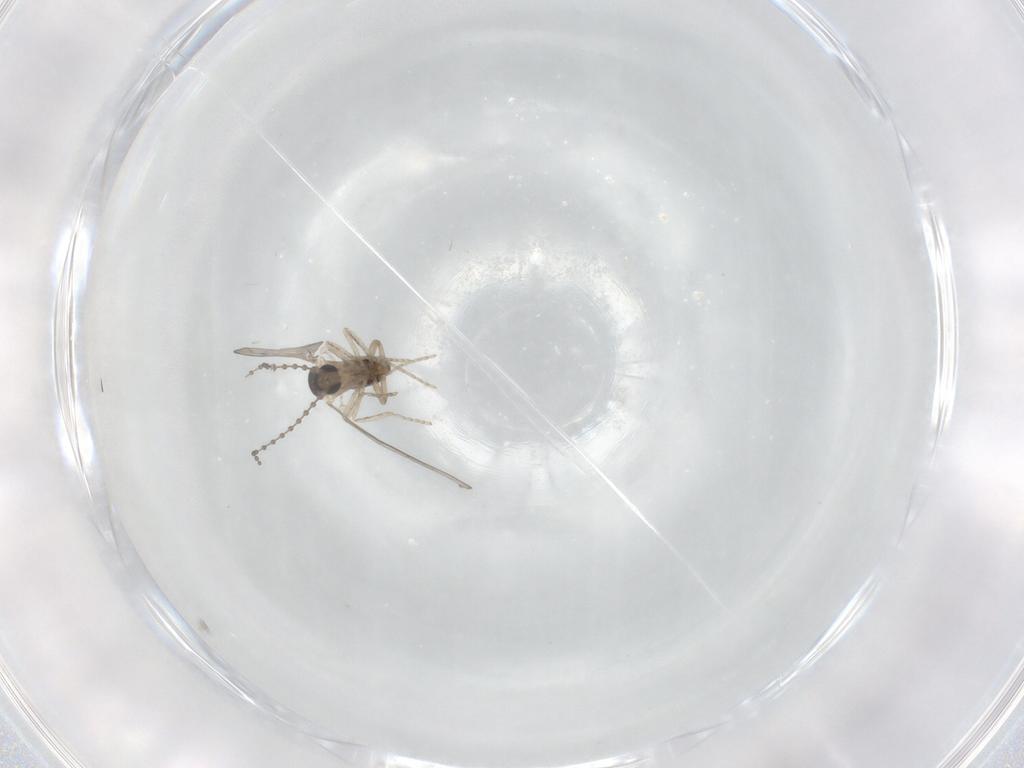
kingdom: Animalia
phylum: Arthropoda
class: Insecta
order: Diptera
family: Cecidomyiidae
